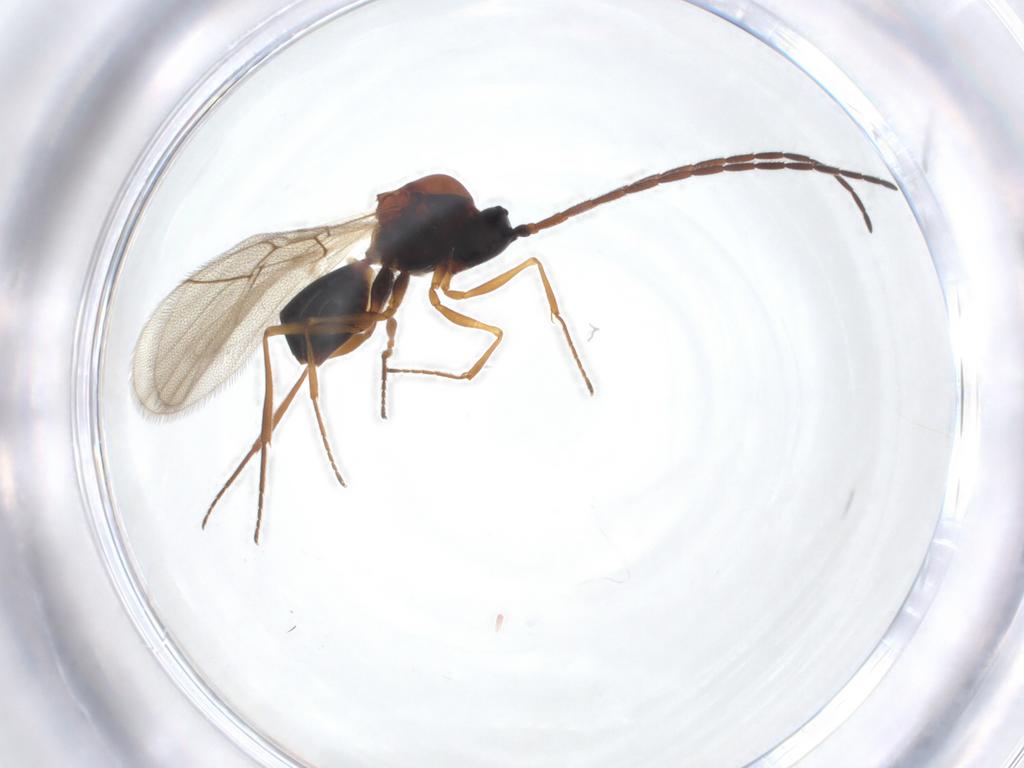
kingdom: Animalia
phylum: Arthropoda
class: Insecta
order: Hymenoptera
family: Figitidae
